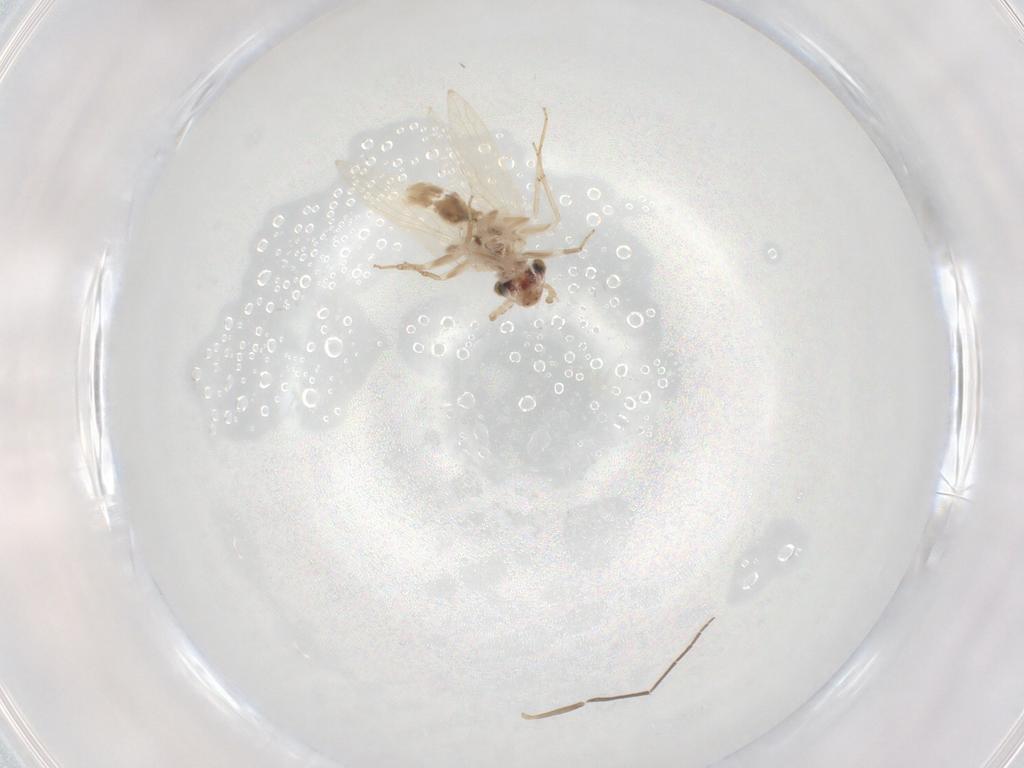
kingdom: Animalia
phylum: Arthropoda
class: Insecta
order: Psocodea
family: Lepidopsocidae
